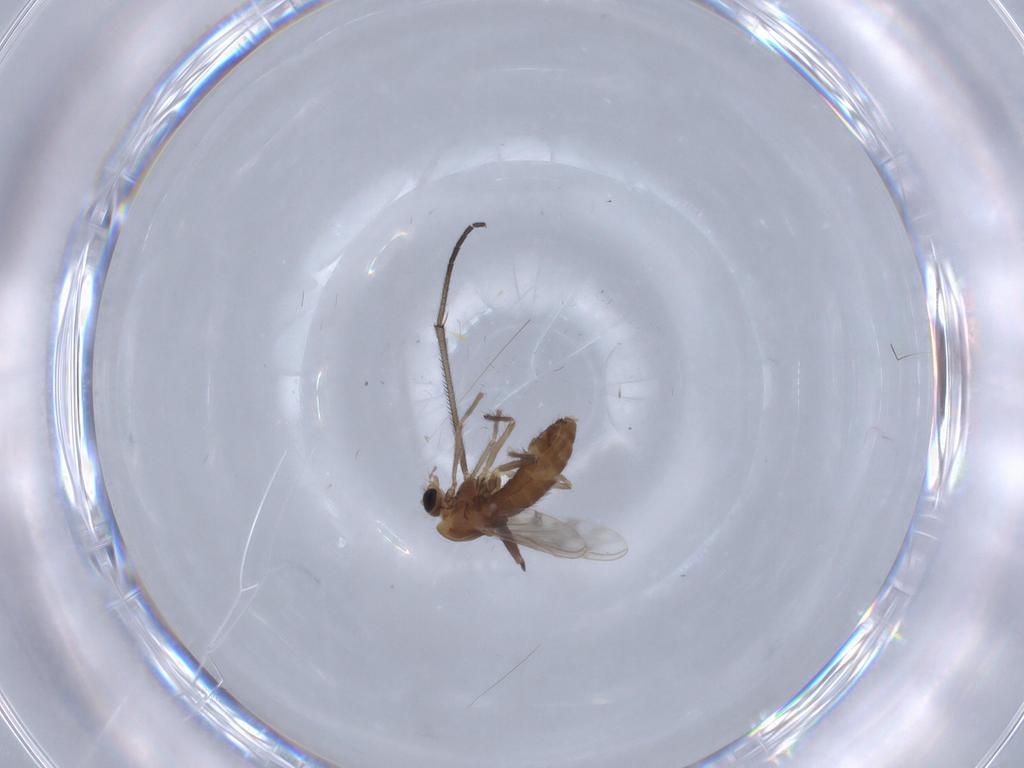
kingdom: Animalia
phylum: Arthropoda
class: Insecta
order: Diptera
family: Chironomidae
